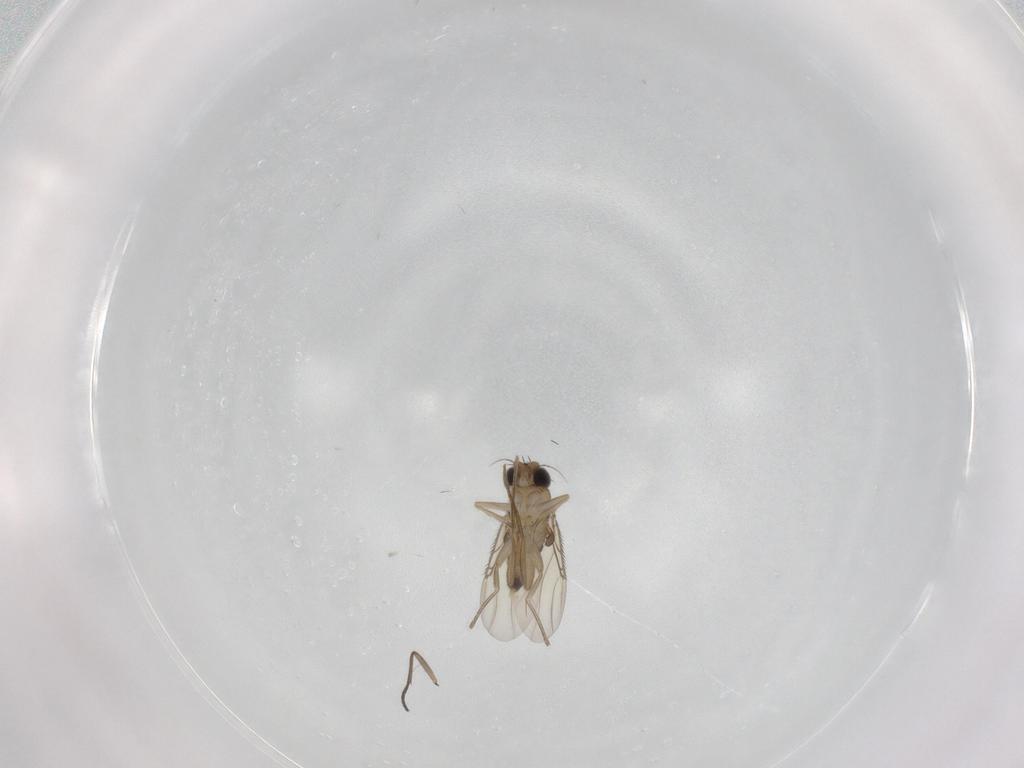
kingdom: Animalia
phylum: Arthropoda
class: Insecta
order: Diptera
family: Phoridae
